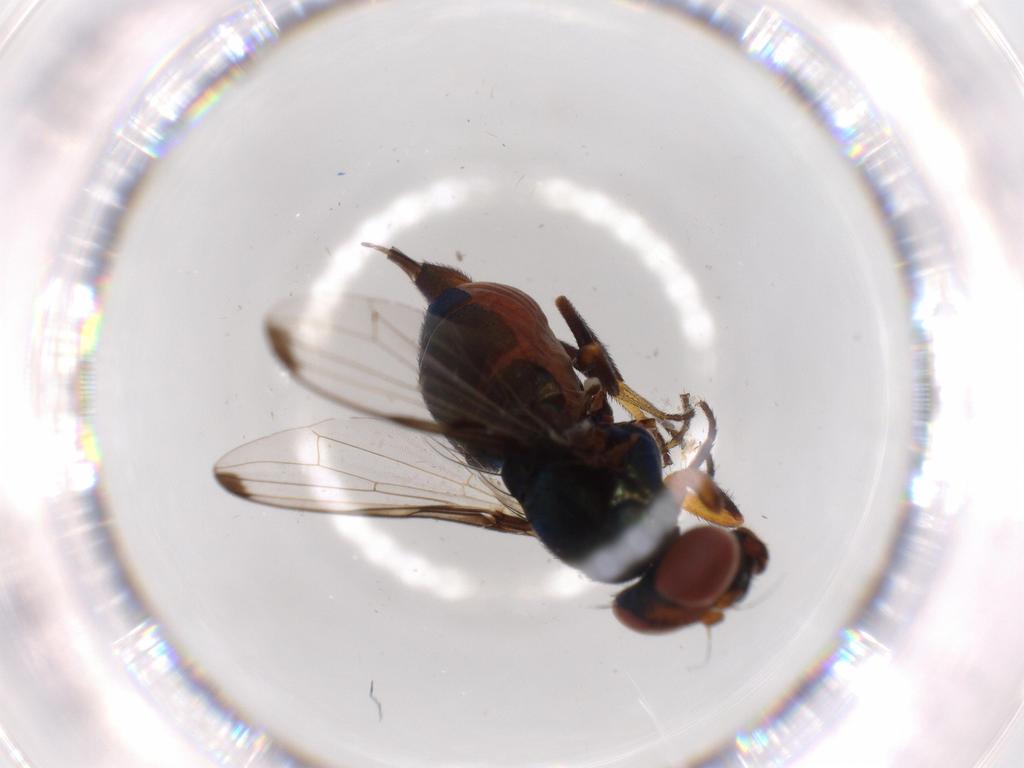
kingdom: Animalia
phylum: Arthropoda
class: Insecta
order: Diptera
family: Ulidiidae
